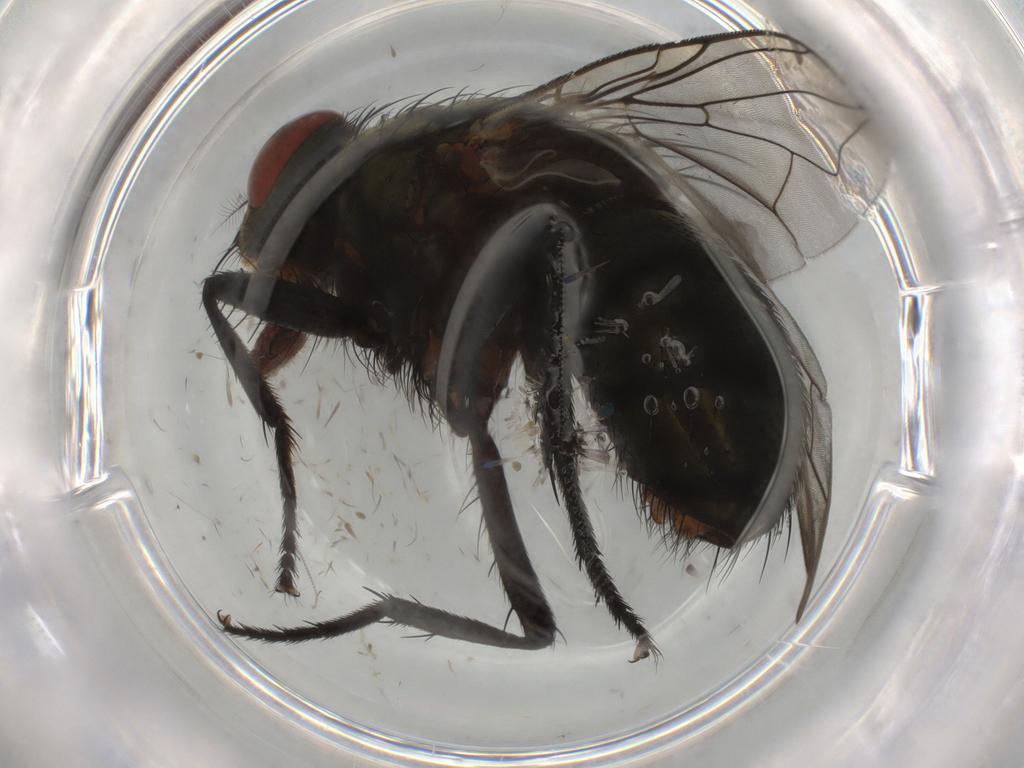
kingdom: Animalia
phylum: Arthropoda
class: Insecta
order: Diptera
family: Sarcophagidae
